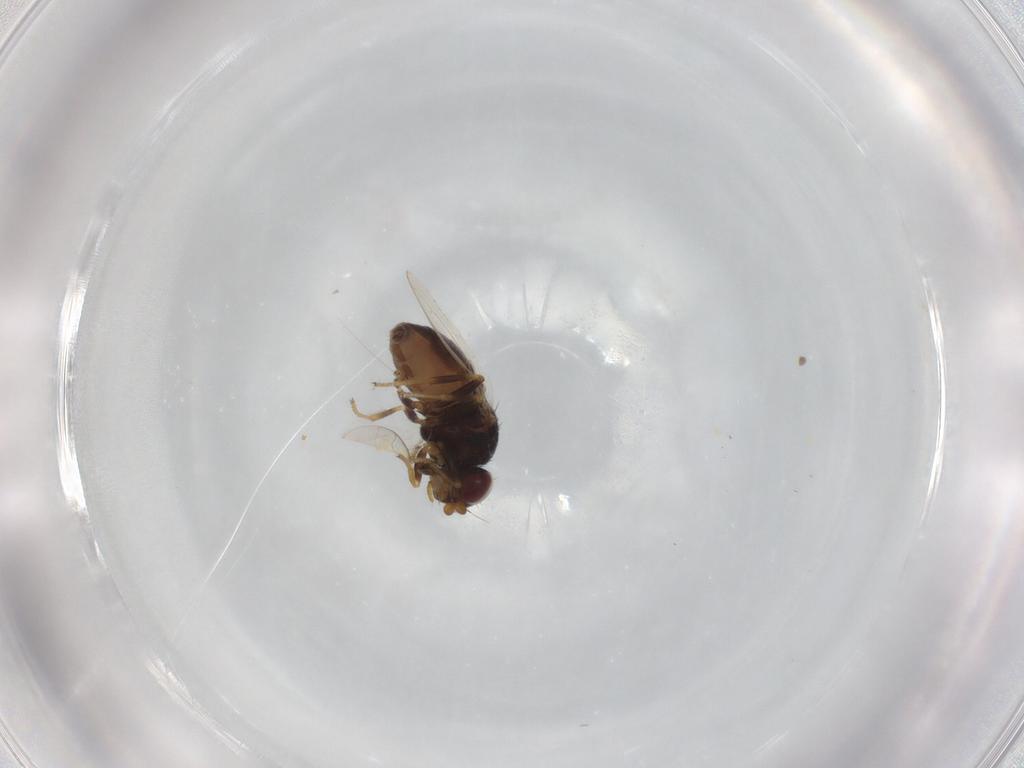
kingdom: Animalia
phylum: Arthropoda
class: Insecta
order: Diptera
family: Chloropidae
